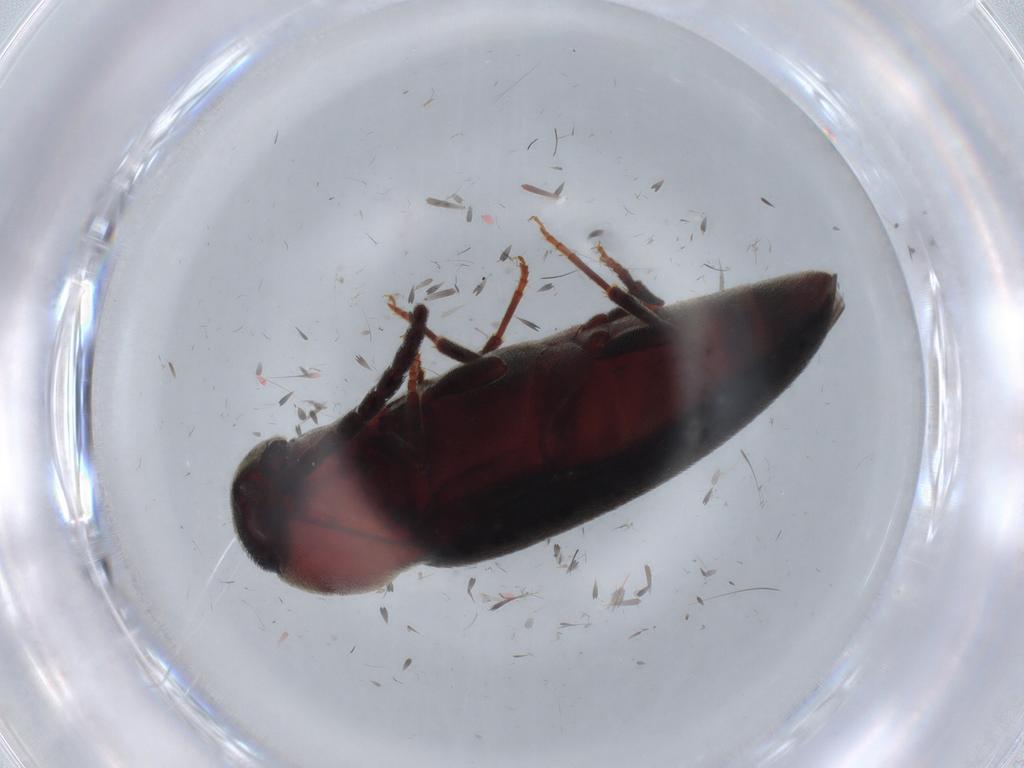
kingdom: Animalia
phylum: Arthropoda
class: Insecta
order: Coleoptera
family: Eucnemidae
